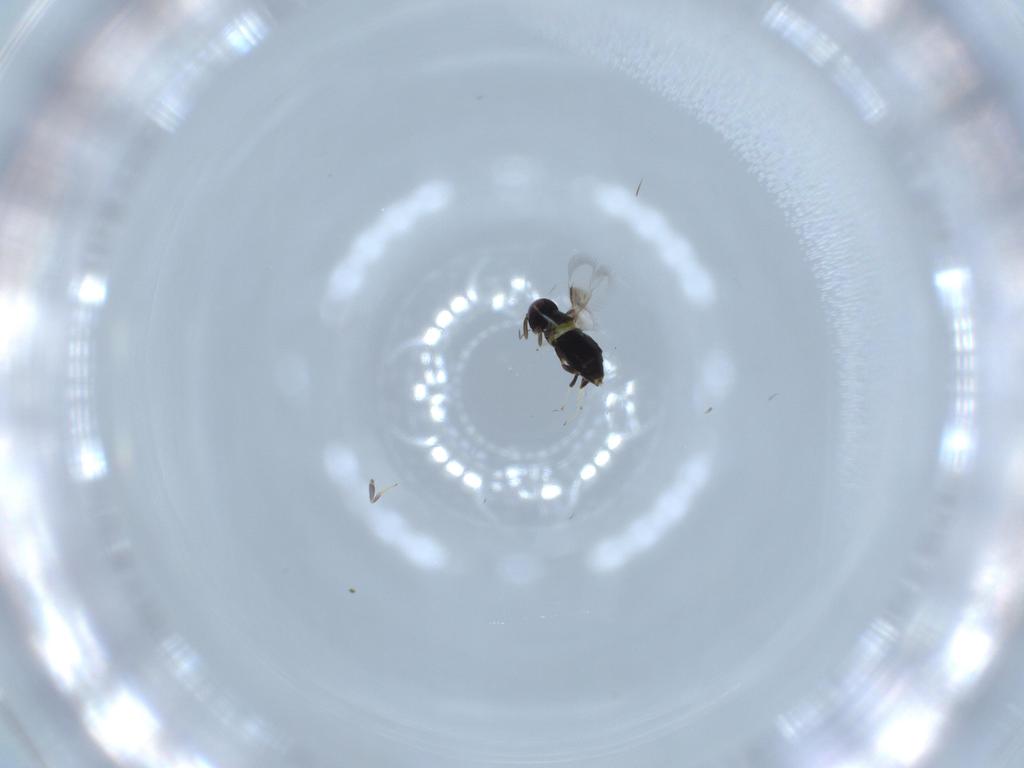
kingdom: Animalia
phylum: Arthropoda
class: Insecta
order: Hymenoptera
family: Signiphoridae
